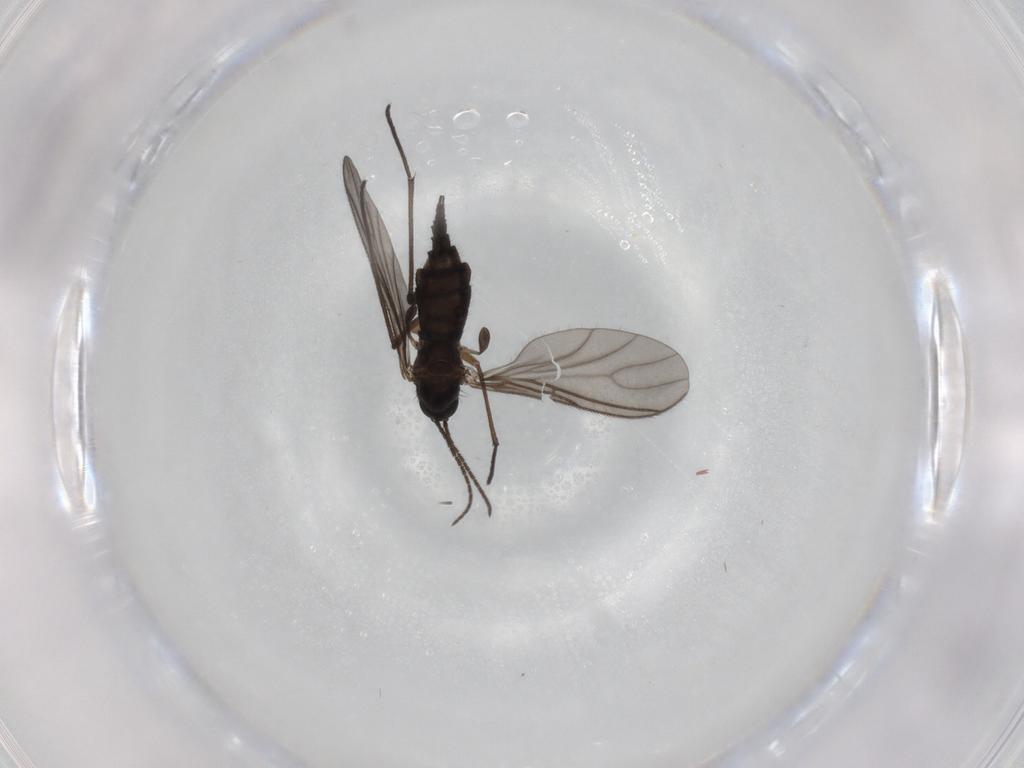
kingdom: Animalia
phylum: Arthropoda
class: Insecta
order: Diptera
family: Sciaridae
